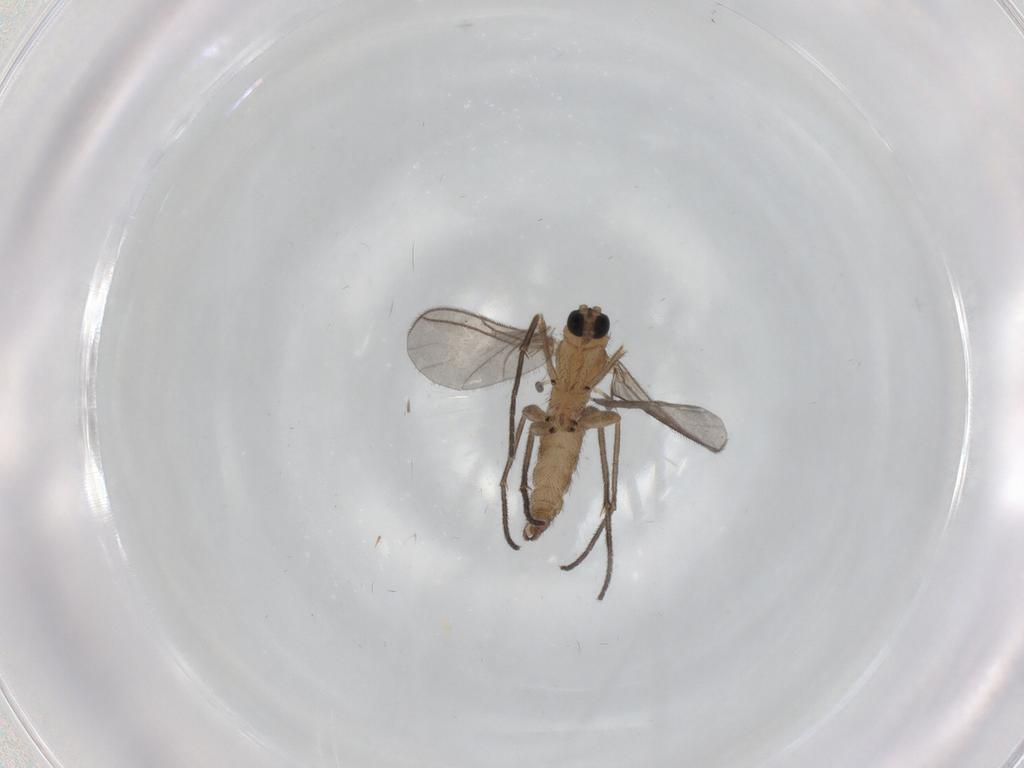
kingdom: Animalia
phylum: Arthropoda
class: Insecta
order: Diptera
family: Sciaridae
